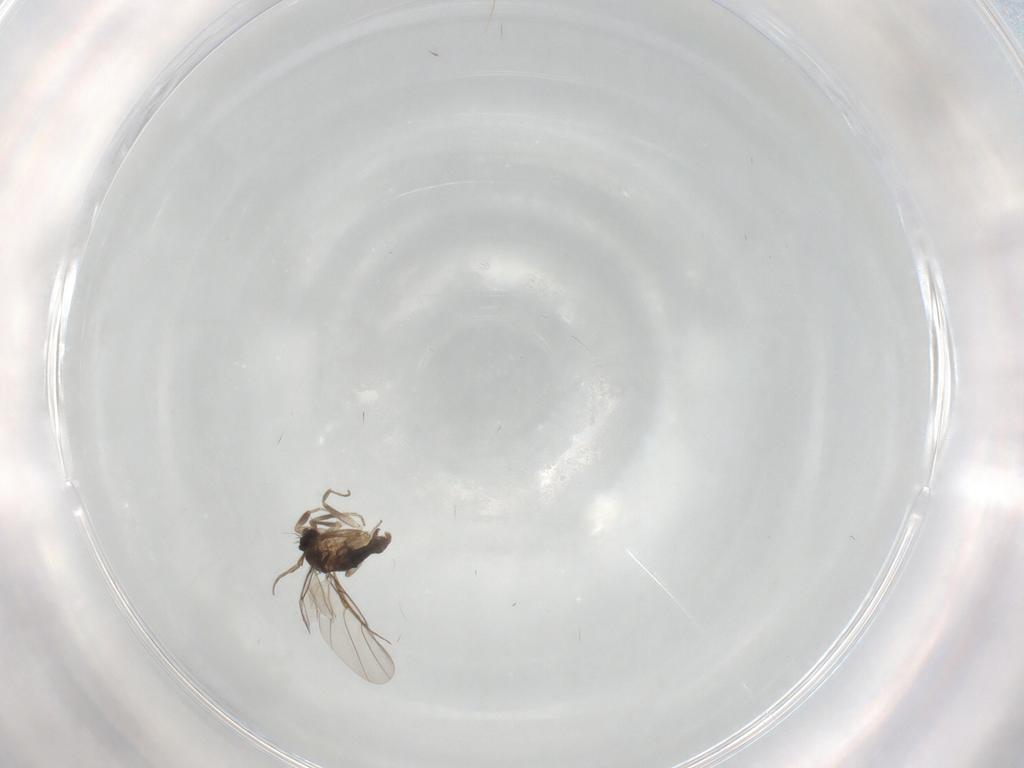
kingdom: Animalia
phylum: Arthropoda
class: Insecta
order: Diptera
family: Phoridae
